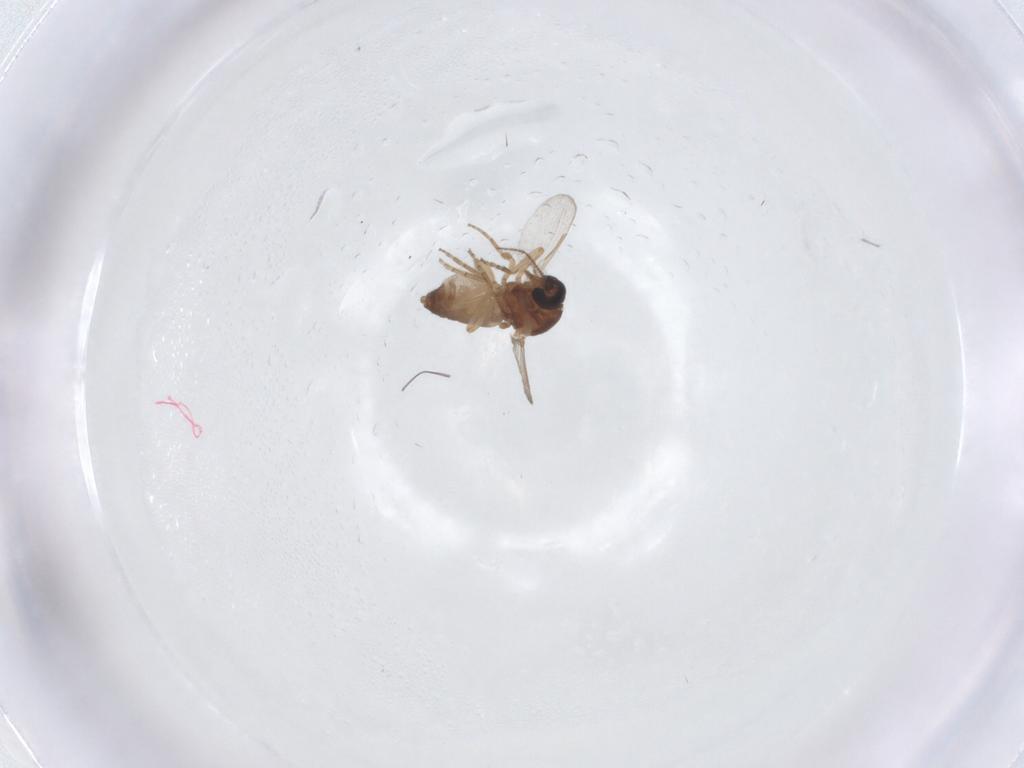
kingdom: Animalia
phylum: Arthropoda
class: Insecta
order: Diptera
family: Ceratopogonidae
